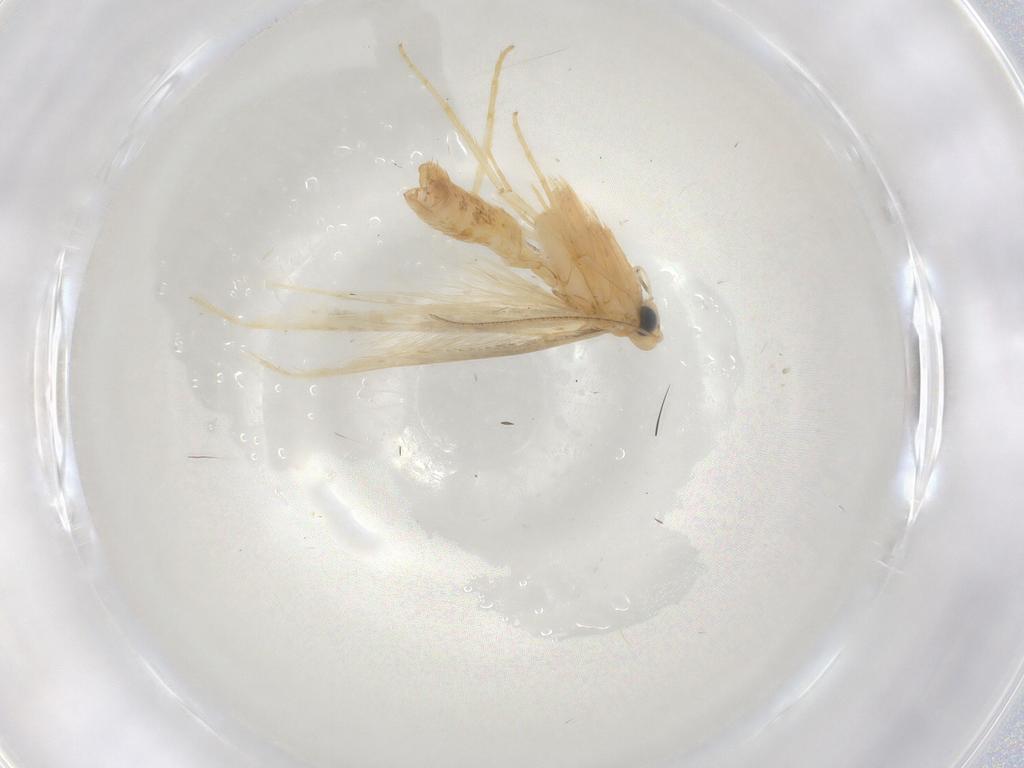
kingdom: Animalia
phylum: Arthropoda
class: Insecta
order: Lepidoptera
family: Tischeriidae
